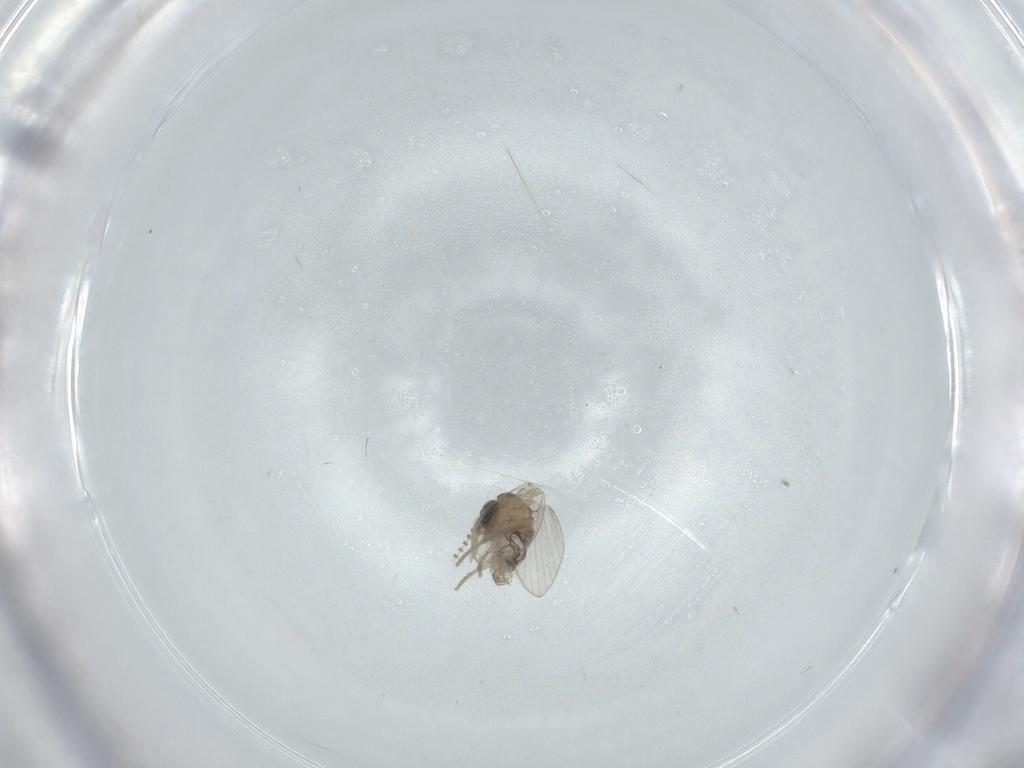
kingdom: Animalia
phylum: Arthropoda
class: Insecta
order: Diptera
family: Psychodidae
